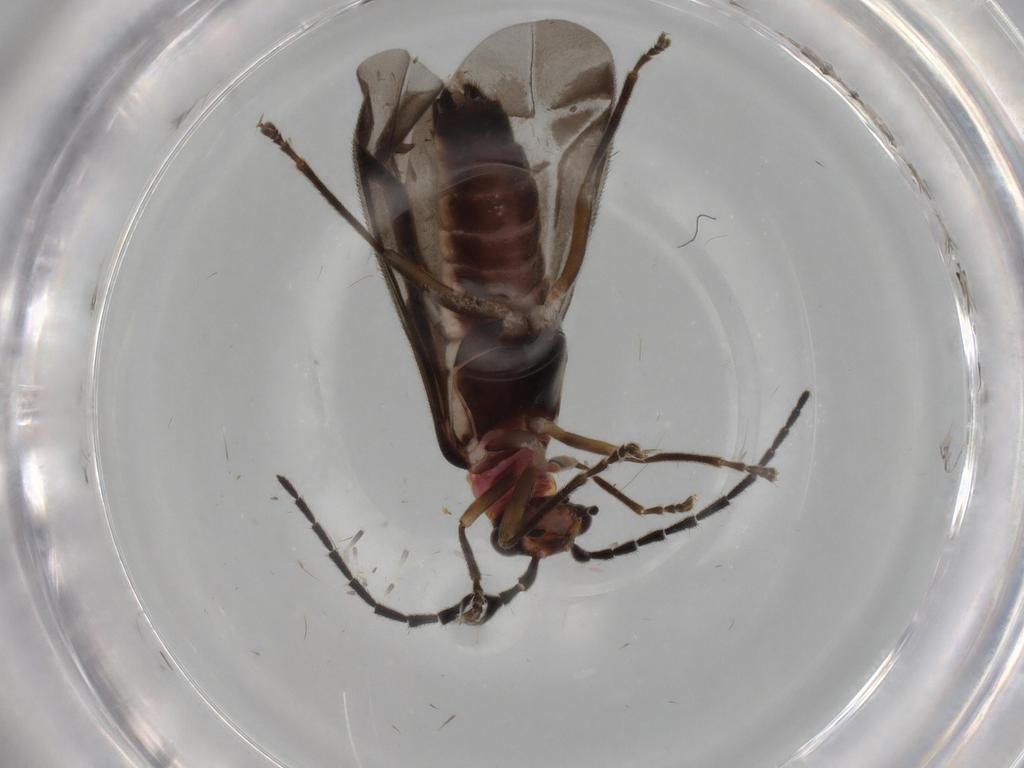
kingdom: Animalia
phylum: Arthropoda
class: Insecta
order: Coleoptera
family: Cantharidae
